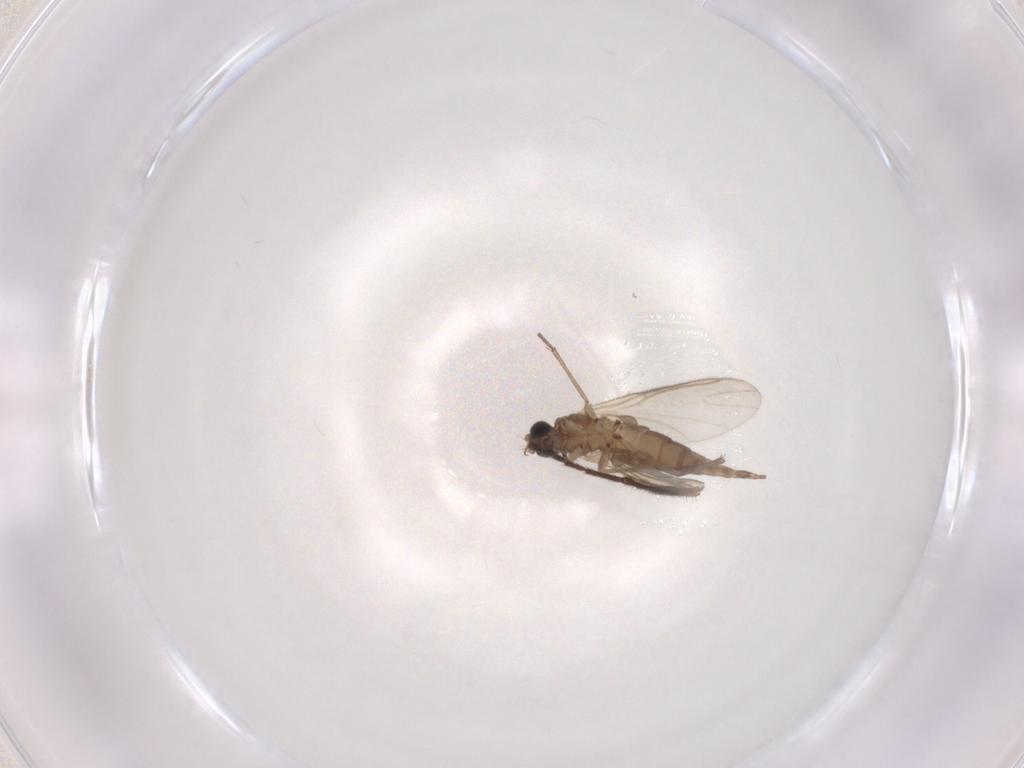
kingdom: Animalia
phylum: Arthropoda
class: Insecta
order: Diptera
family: Sciaridae
